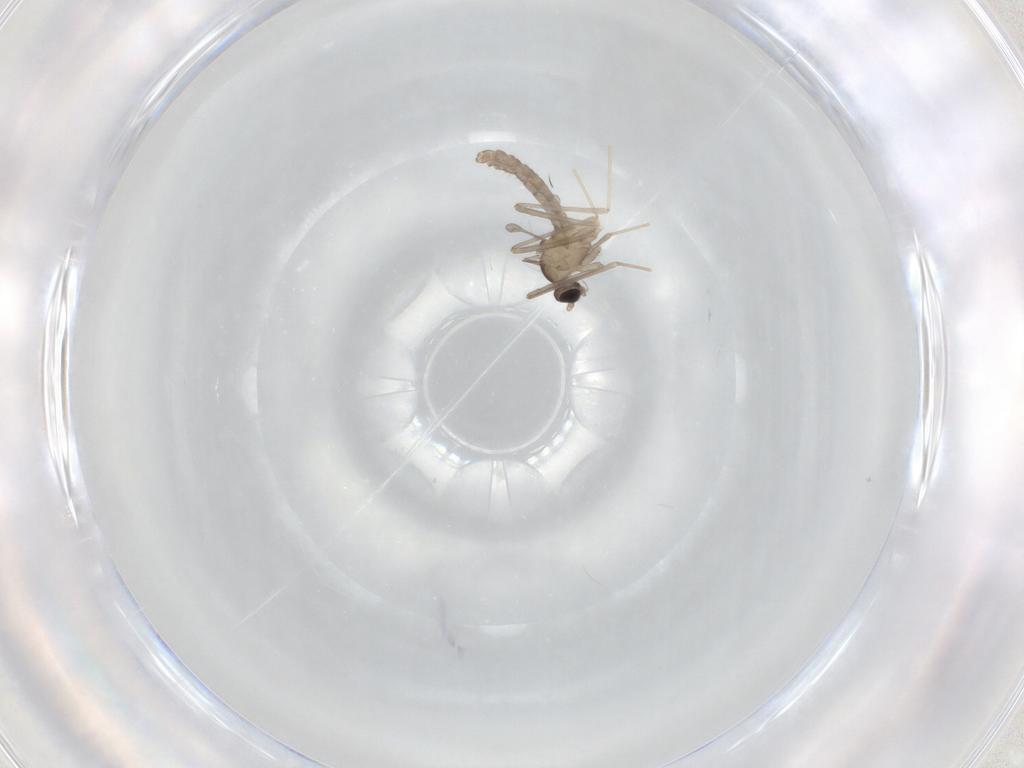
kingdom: Animalia
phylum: Arthropoda
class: Insecta
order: Diptera
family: Cecidomyiidae
